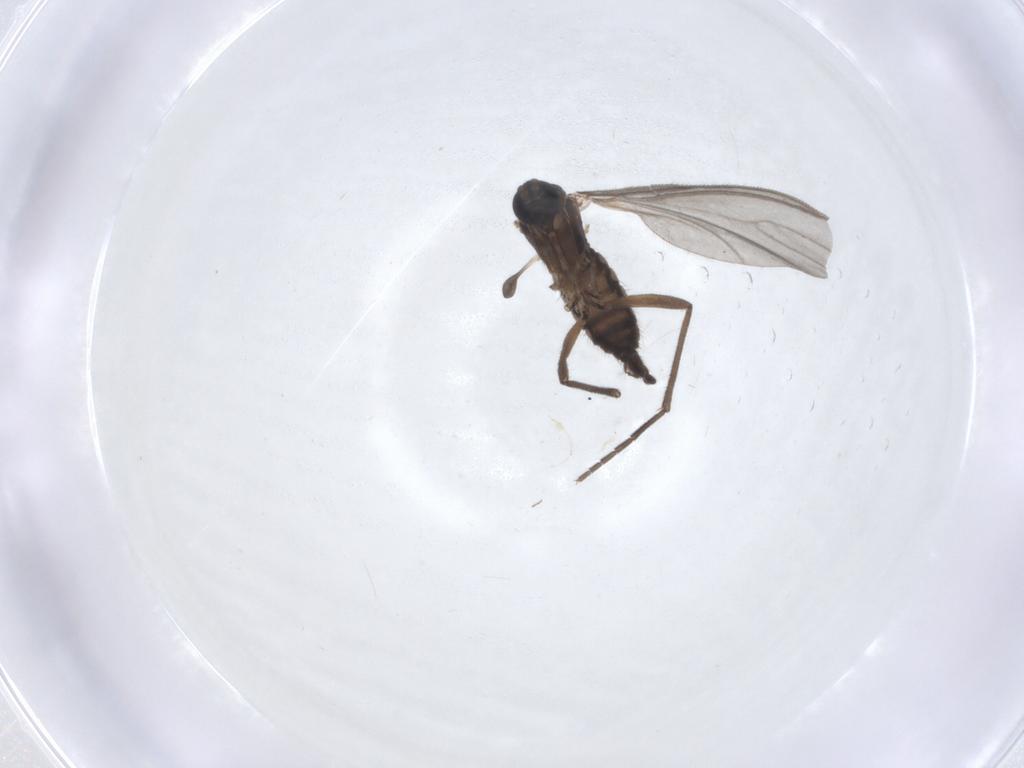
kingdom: Animalia
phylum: Arthropoda
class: Insecta
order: Diptera
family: Sciaridae
